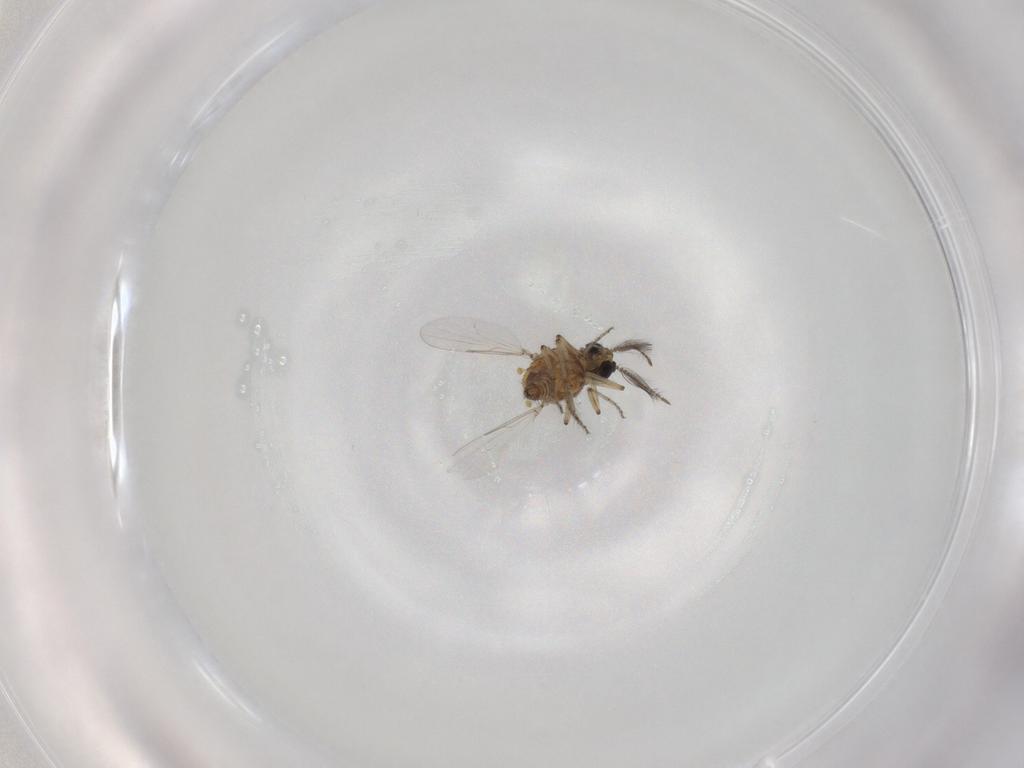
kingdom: Animalia
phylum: Arthropoda
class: Insecta
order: Diptera
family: Ceratopogonidae
